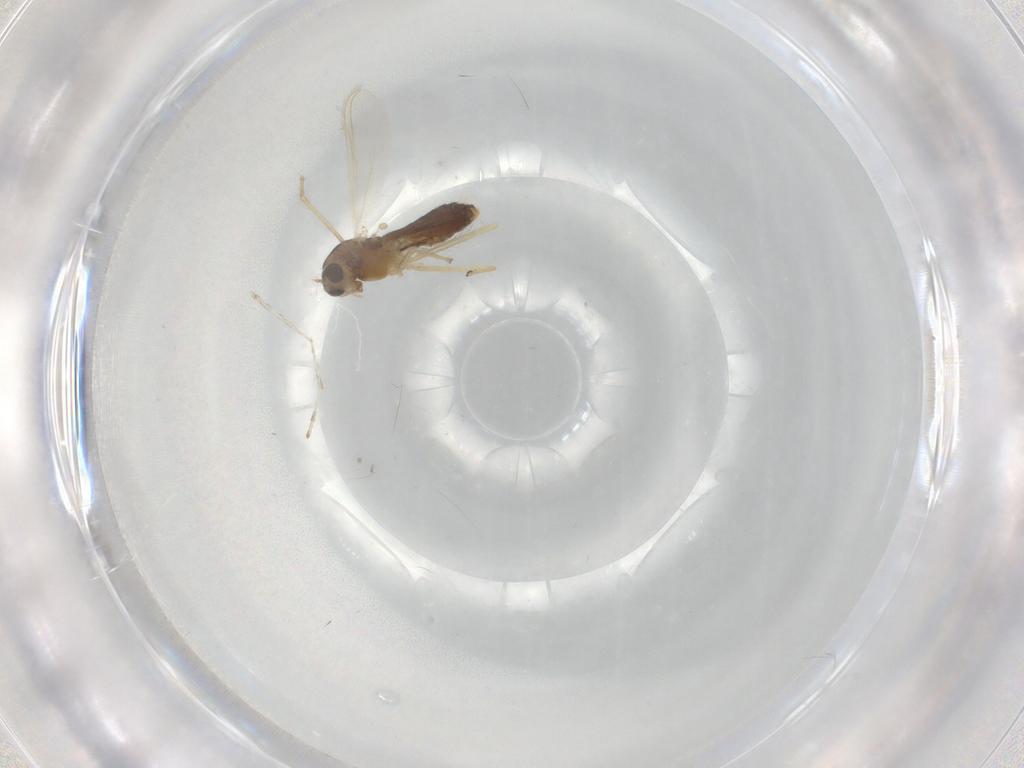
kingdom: Animalia
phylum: Arthropoda
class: Insecta
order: Diptera
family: Chironomidae
